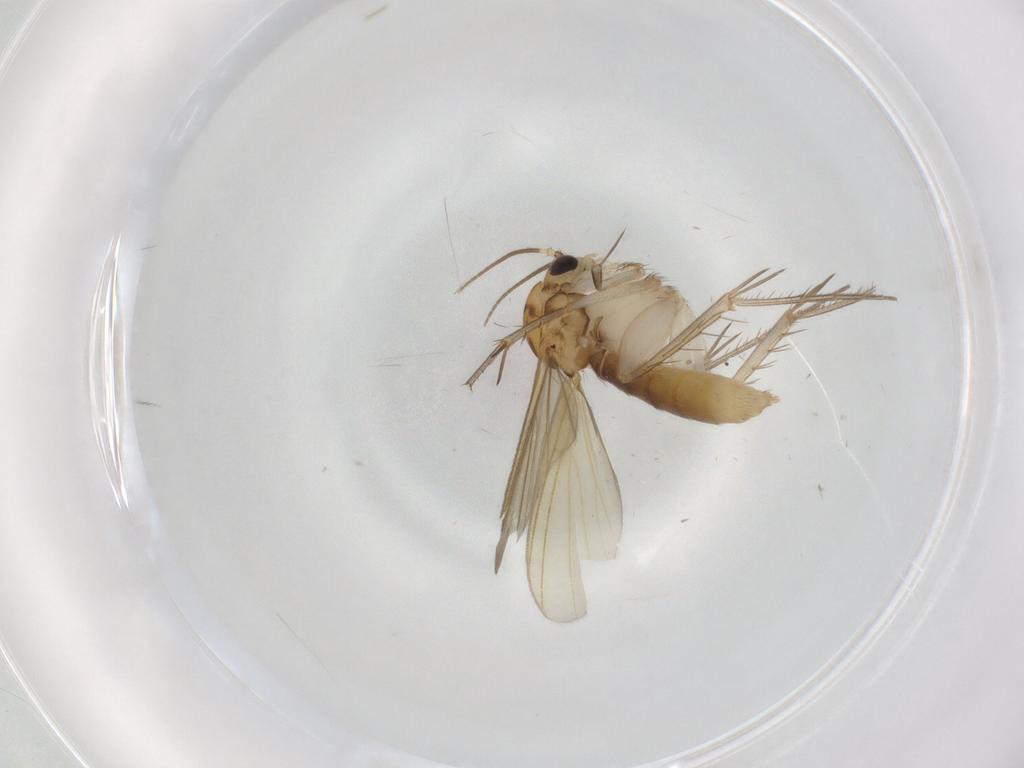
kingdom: Animalia
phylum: Arthropoda
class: Insecta
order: Diptera
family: Mycetophilidae
